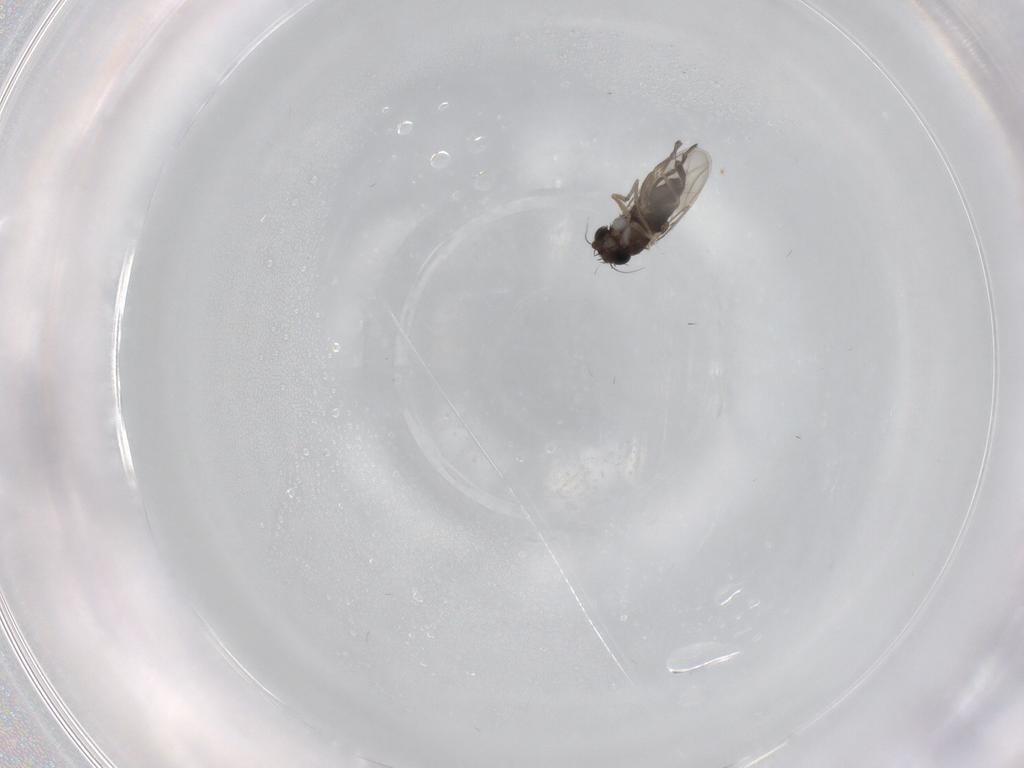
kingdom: Animalia
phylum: Arthropoda
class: Insecta
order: Diptera
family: Phoridae
